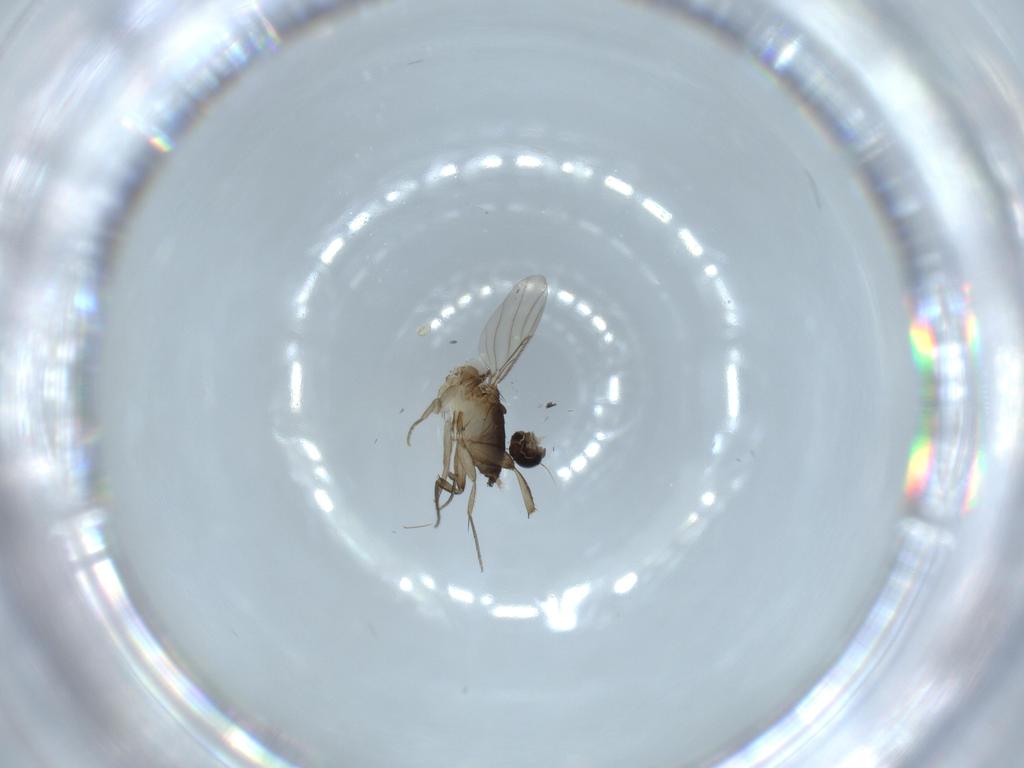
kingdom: Animalia
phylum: Arthropoda
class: Insecta
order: Diptera
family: Phoridae
